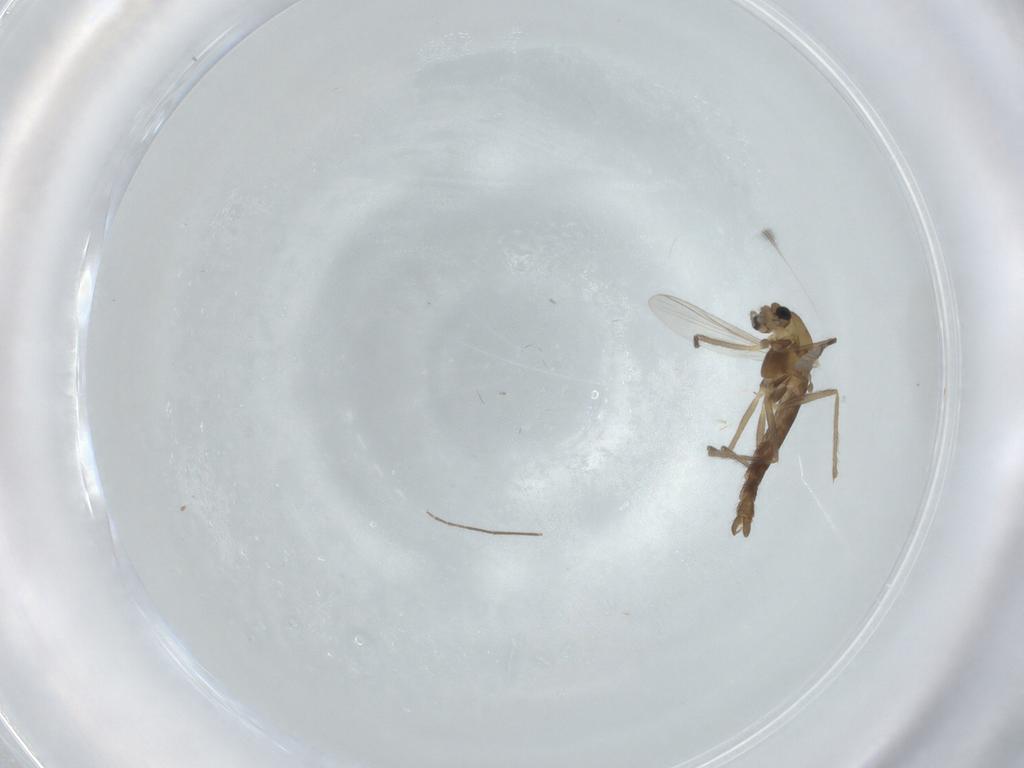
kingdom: Animalia
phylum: Arthropoda
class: Insecta
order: Diptera
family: Chironomidae
